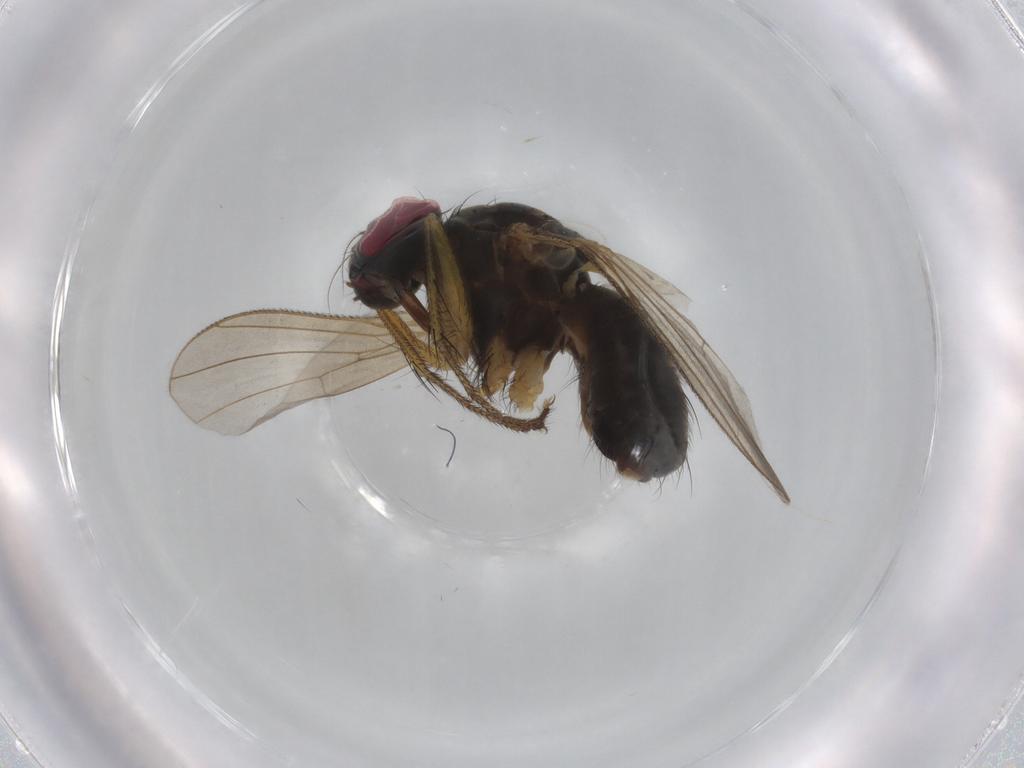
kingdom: Animalia
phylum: Arthropoda
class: Insecta
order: Diptera
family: Muscidae
